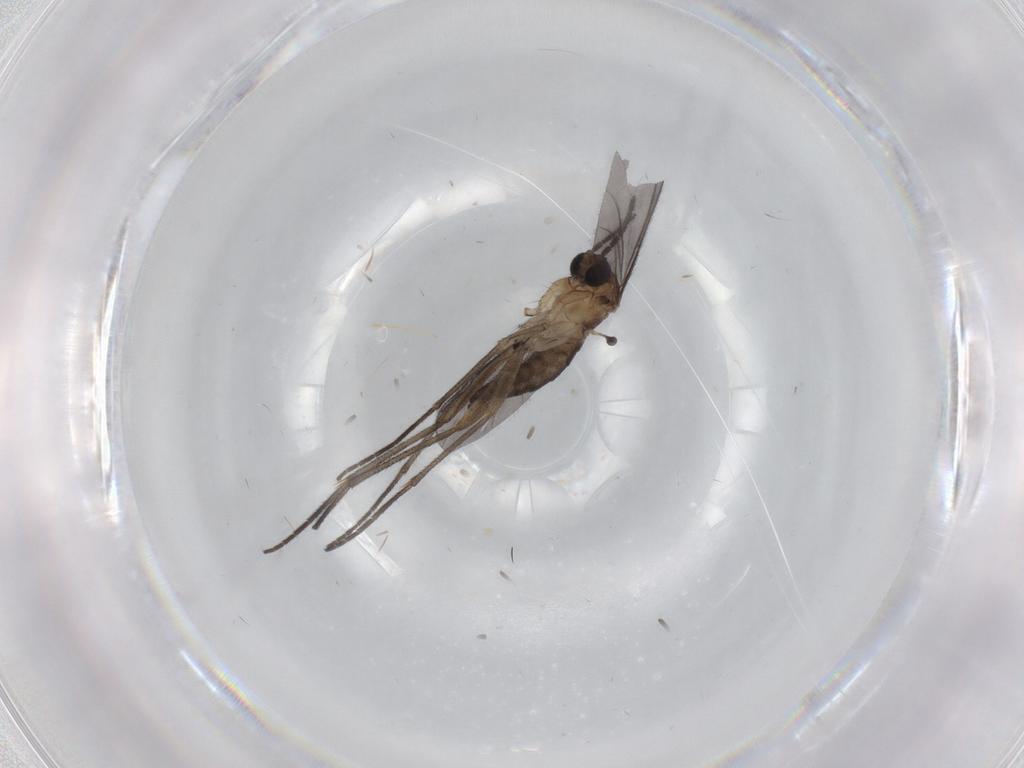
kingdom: Animalia
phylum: Arthropoda
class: Insecta
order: Diptera
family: Sciaridae
